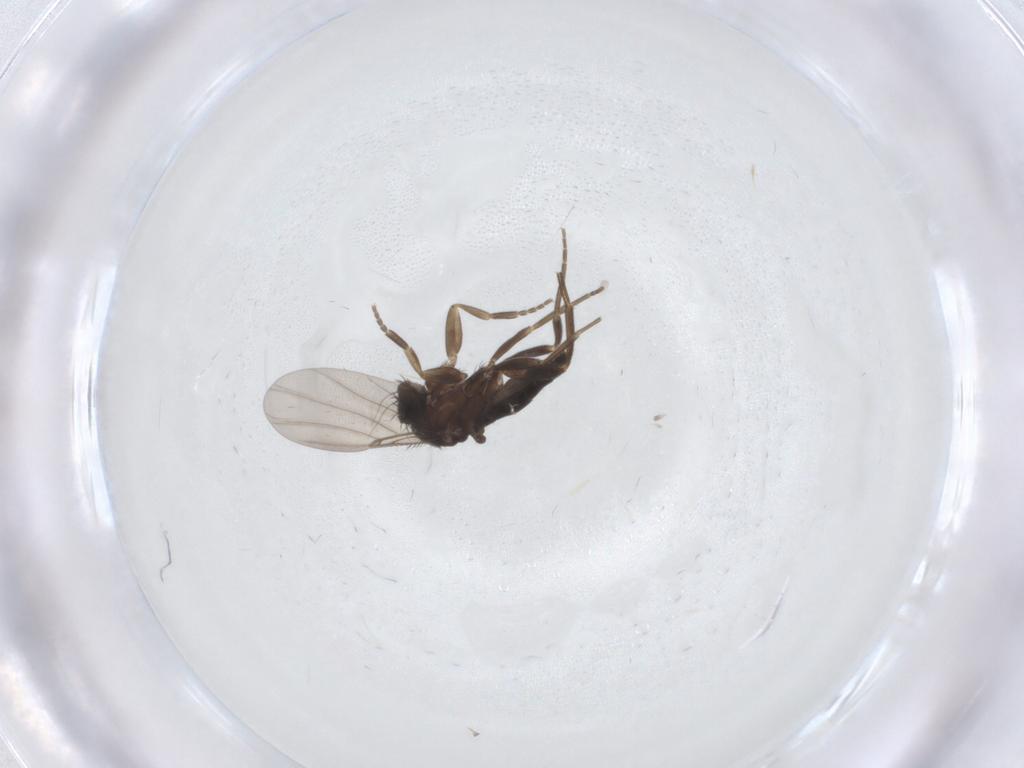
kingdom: Animalia
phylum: Arthropoda
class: Insecta
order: Diptera
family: Phoridae
